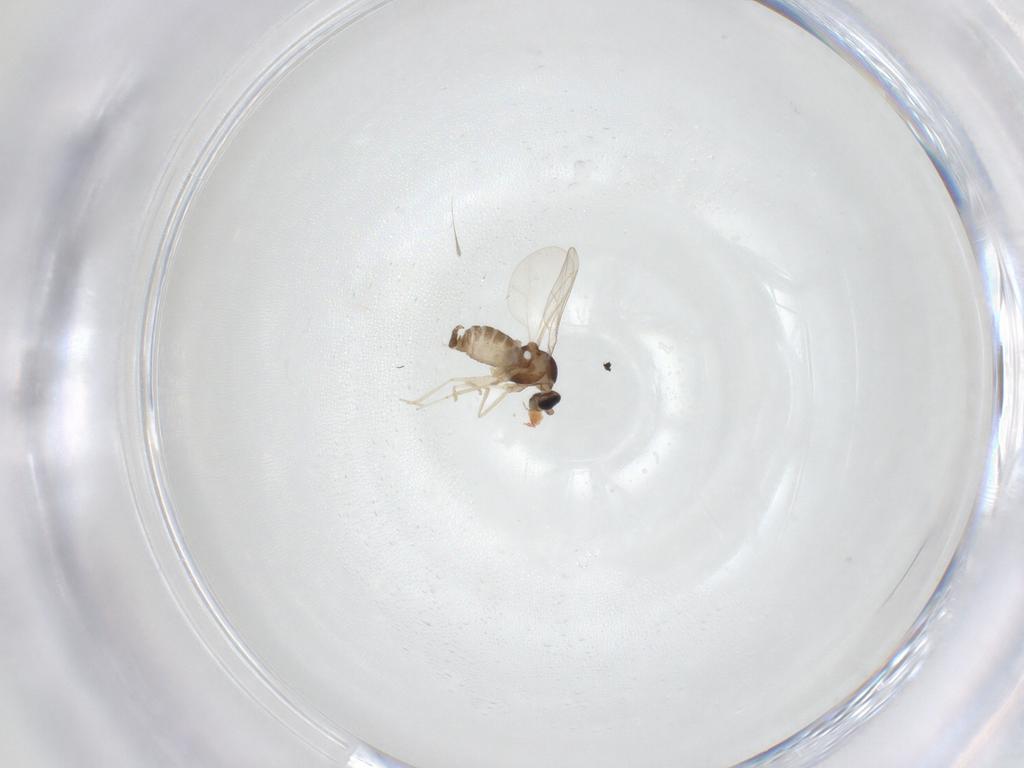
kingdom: Animalia
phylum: Arthropoda
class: Insecta
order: Diptera
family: Cecidomyiidae
